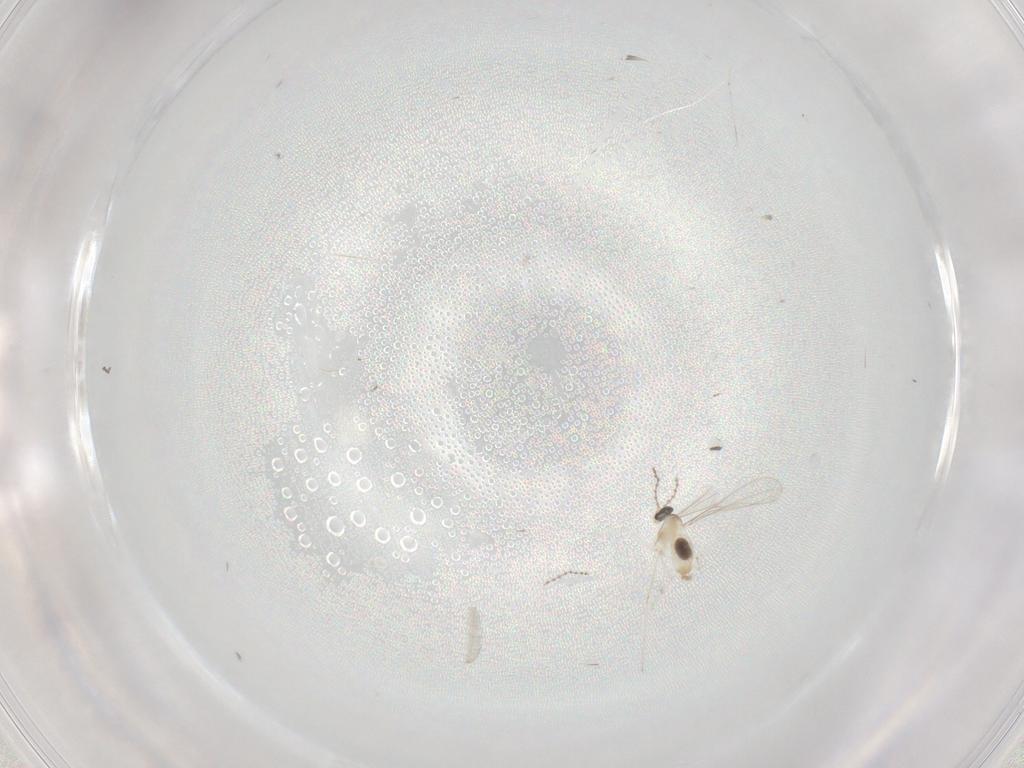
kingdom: Animalia
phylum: Arthropoda
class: Insecta
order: Diptera
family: Cecidomyiidae
